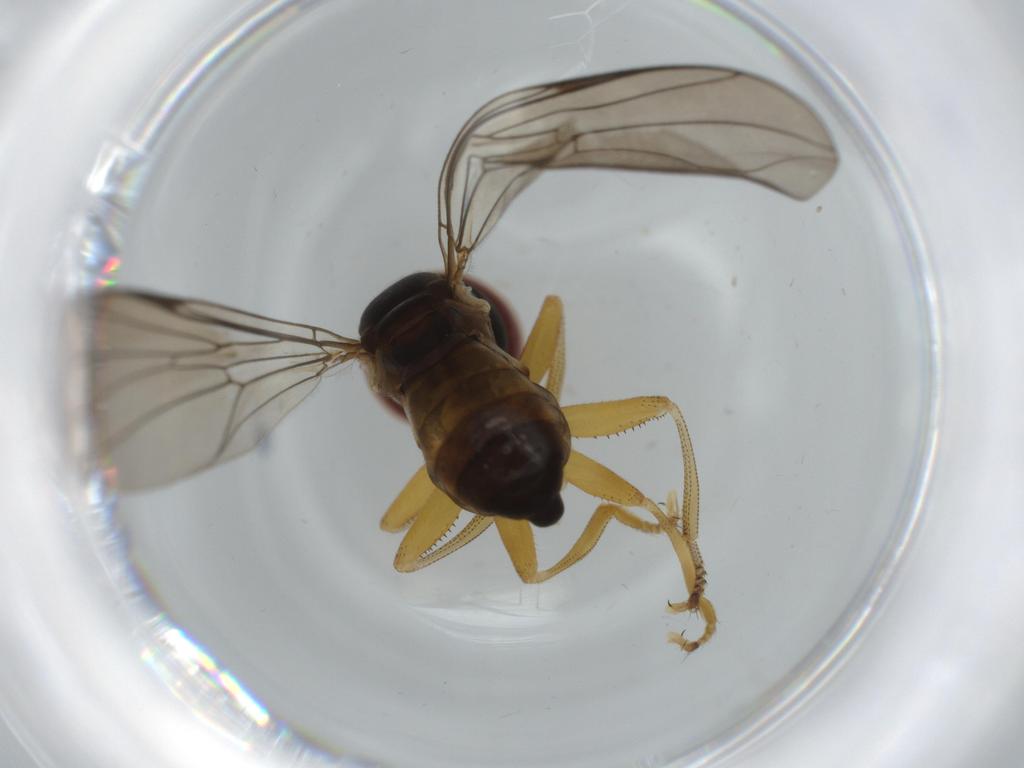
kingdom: Animalia
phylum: Arthropoda
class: Insecta
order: Diptera
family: Pipunculidae
